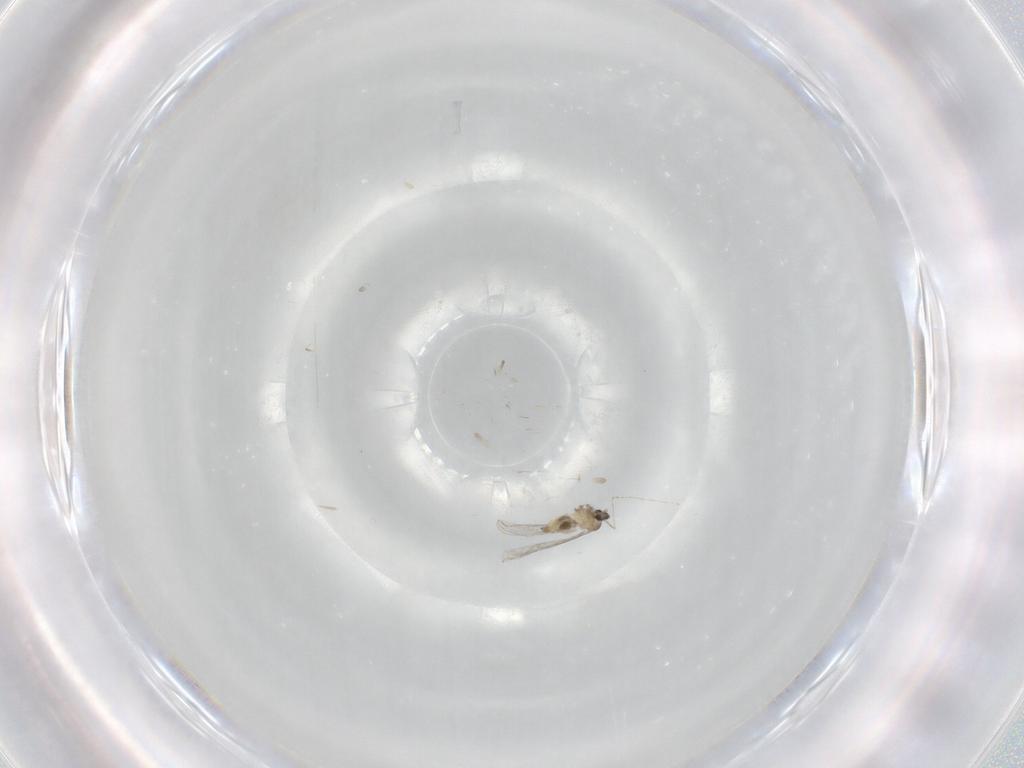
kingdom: Animalia
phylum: Arthropoda
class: Insecta
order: Diptera
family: Cecidomyiidae
